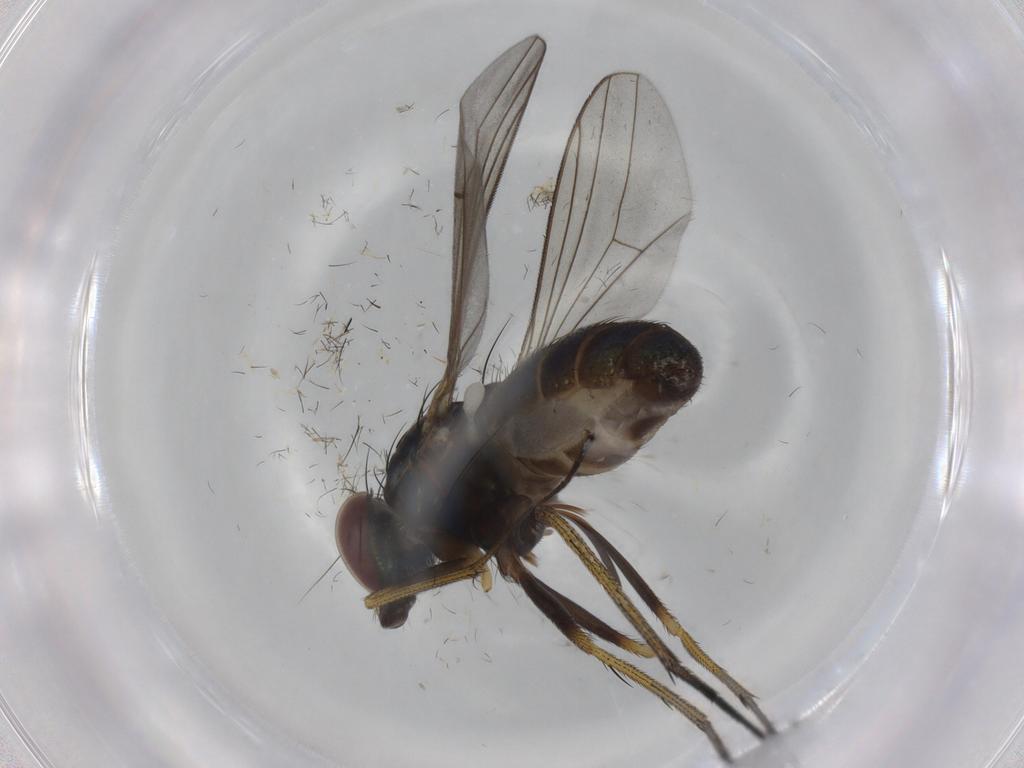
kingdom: Animalia
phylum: Arthropoda
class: Insecta
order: Diptera
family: Dolichopodidae
